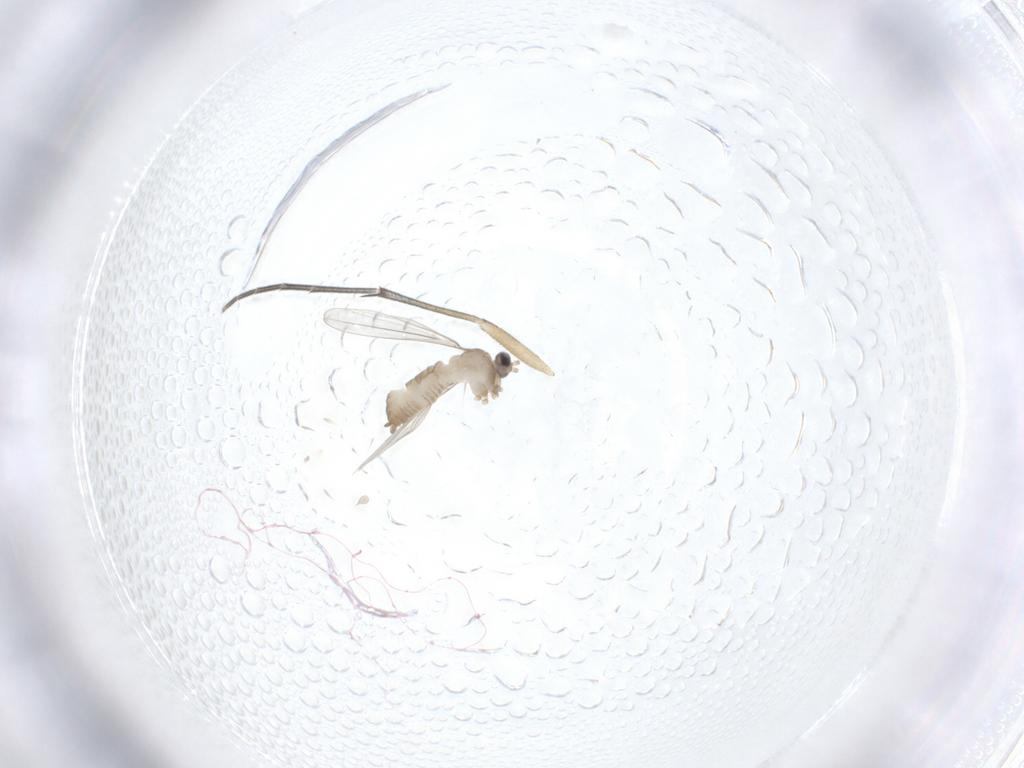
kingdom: Animalia
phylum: Arthropoda
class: Insecta
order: Diptera
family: Cecidomyiidae
